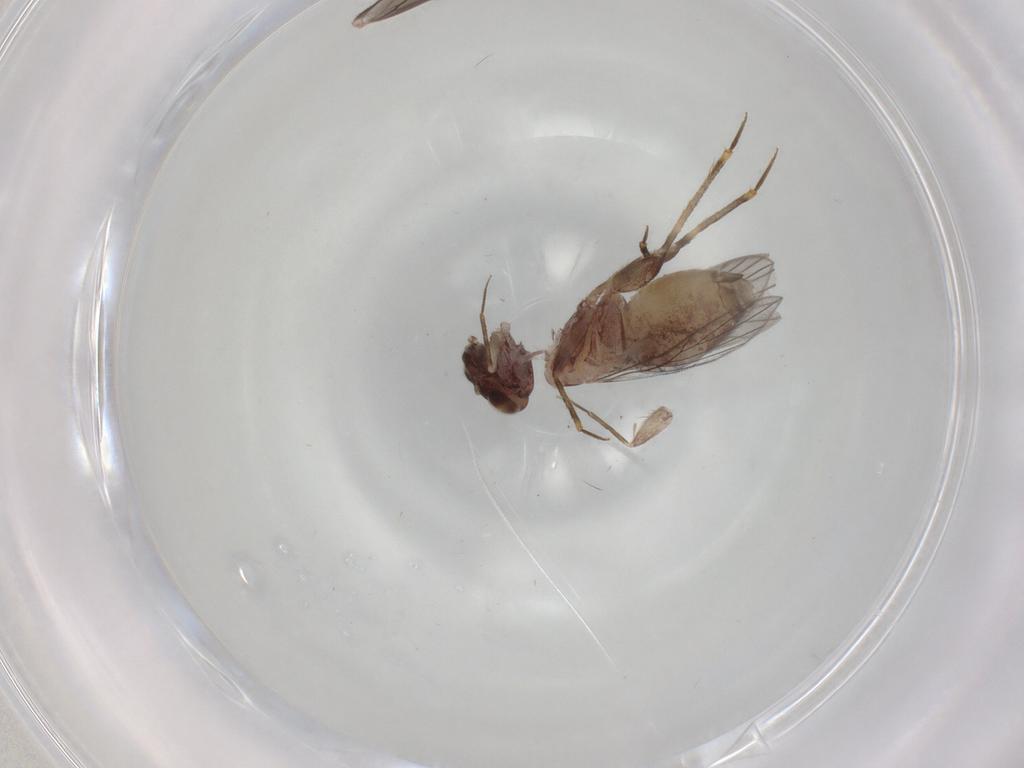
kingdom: Animalia
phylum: Arthropoda
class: Insecta
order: Psocodea
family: Lepidopsocidae
